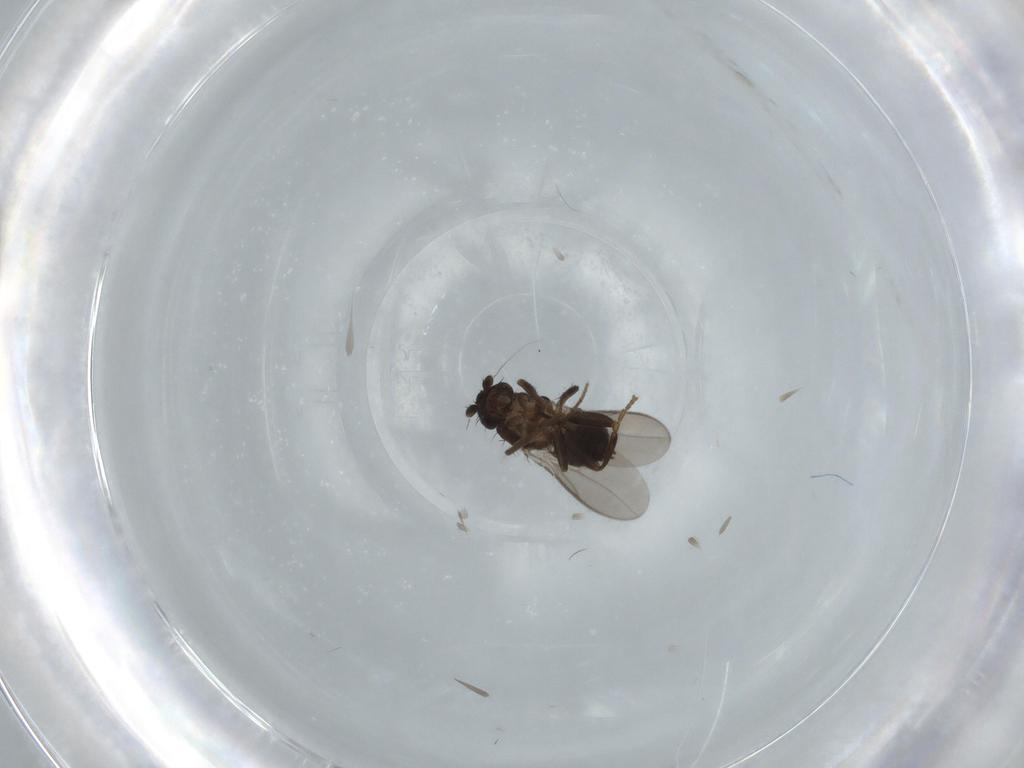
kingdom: Animalia
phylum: Arthropoda
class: Insecta
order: Diptera
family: Sphaeroceridae
